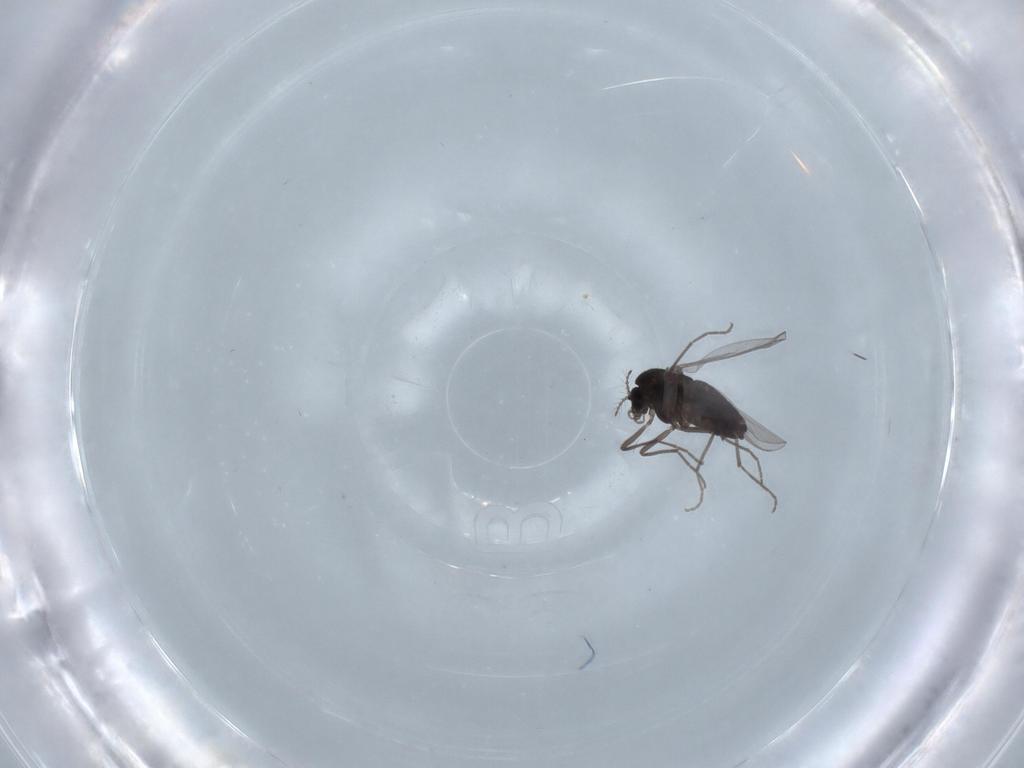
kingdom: Animalia
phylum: Arthropoda
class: Insecta
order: Diptera
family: Chironomidae
